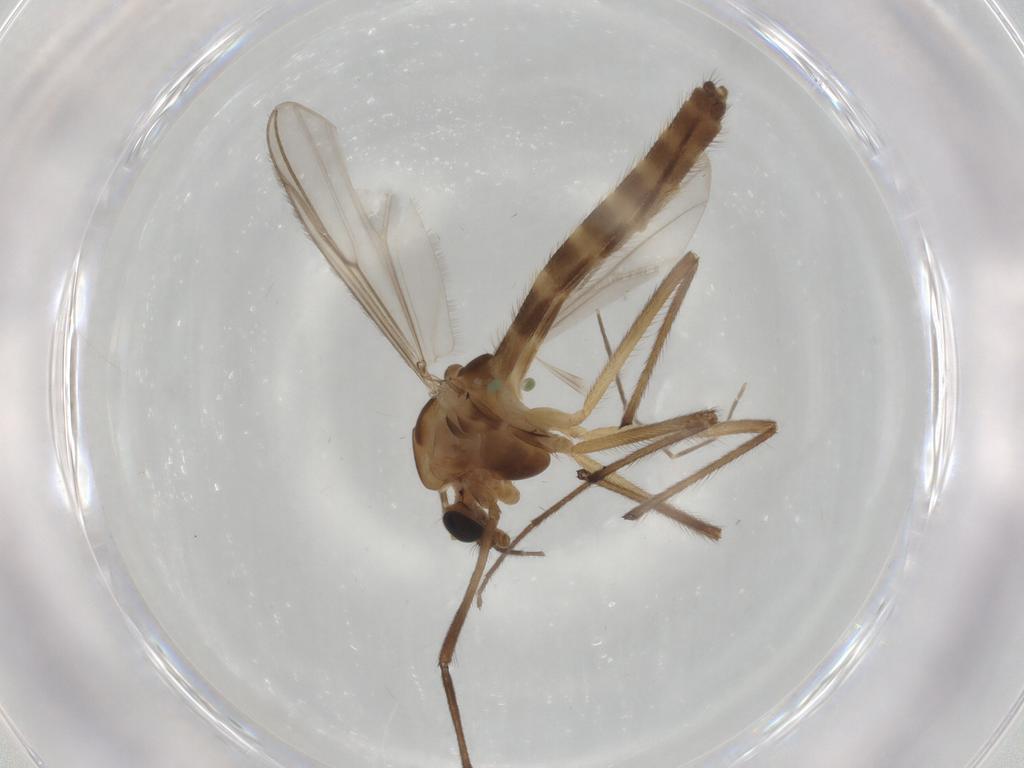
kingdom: Animalia
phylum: Arthropoda
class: Insecta
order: Diptera
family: Chironomidae
